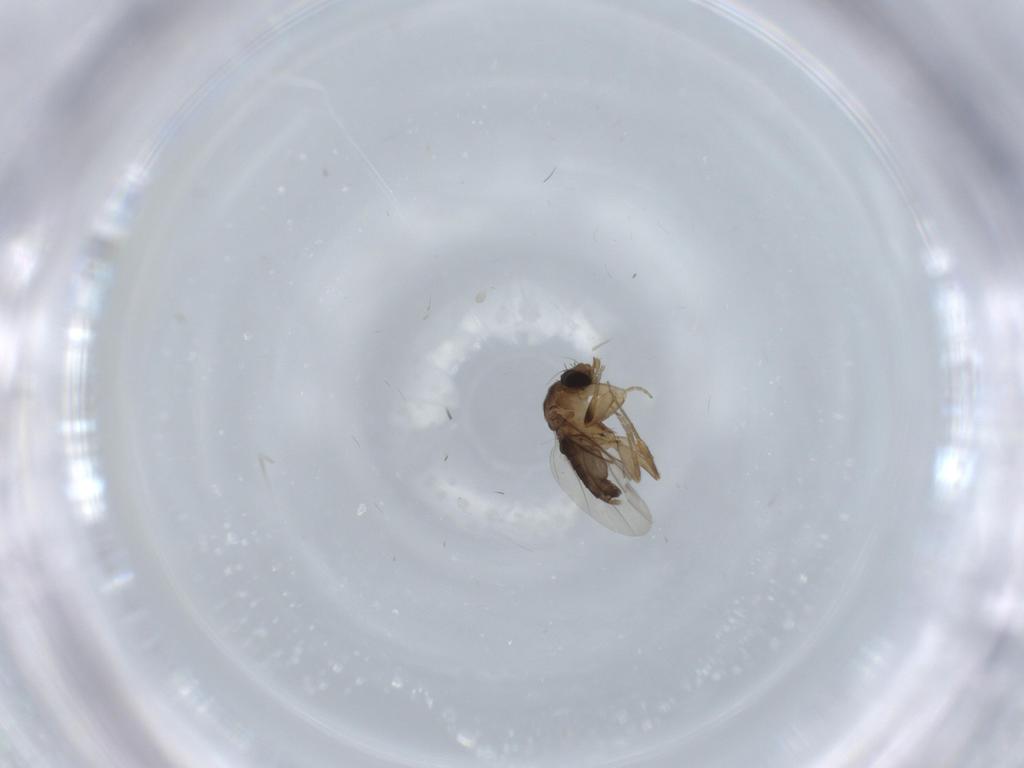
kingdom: Animalia
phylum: Arthropoda
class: Insecta
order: Diptera
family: Phoridae
